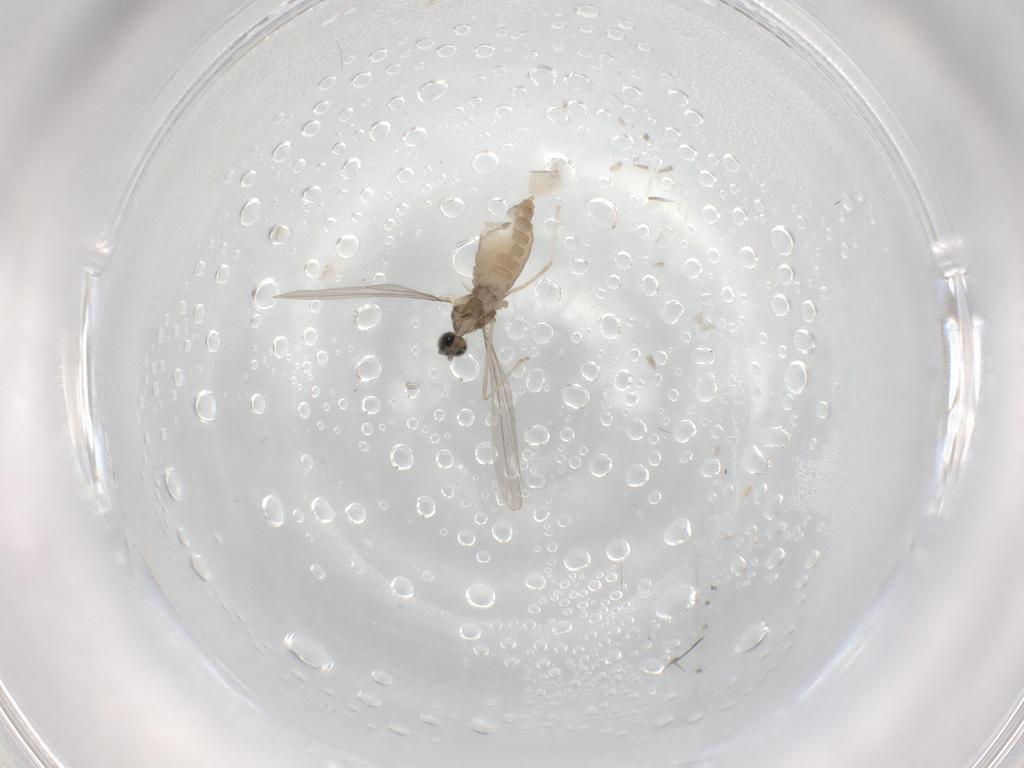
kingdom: Animalia
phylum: Arthropoda
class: Insecta
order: Diptera
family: Cecidomyiidae
